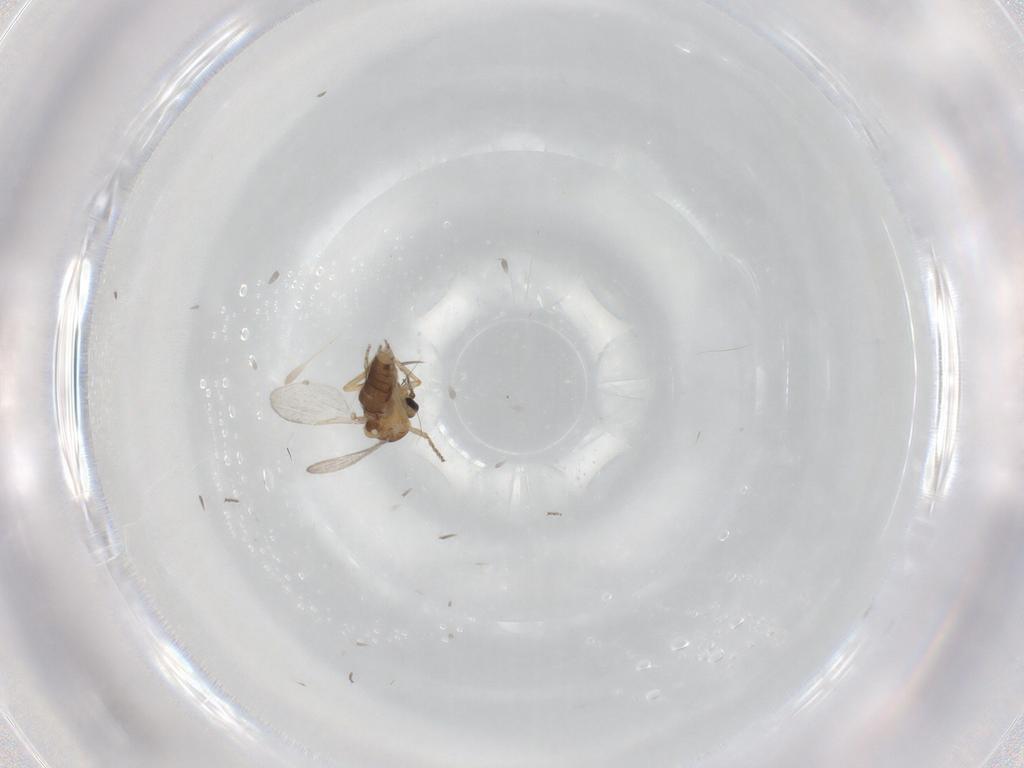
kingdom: Animalia
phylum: Arthropoda
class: Insecta
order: Diptera
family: Ceratopogonidae
